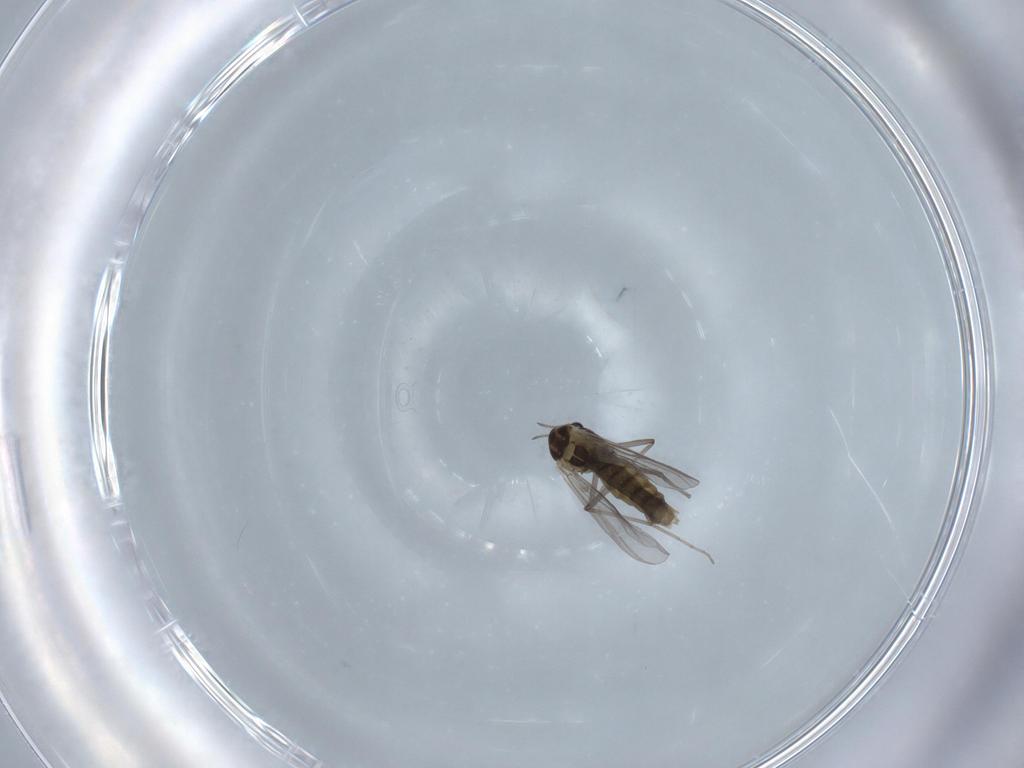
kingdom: Animalia
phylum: Arthropoda
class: Insecta
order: Diptera
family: Chironomidae
